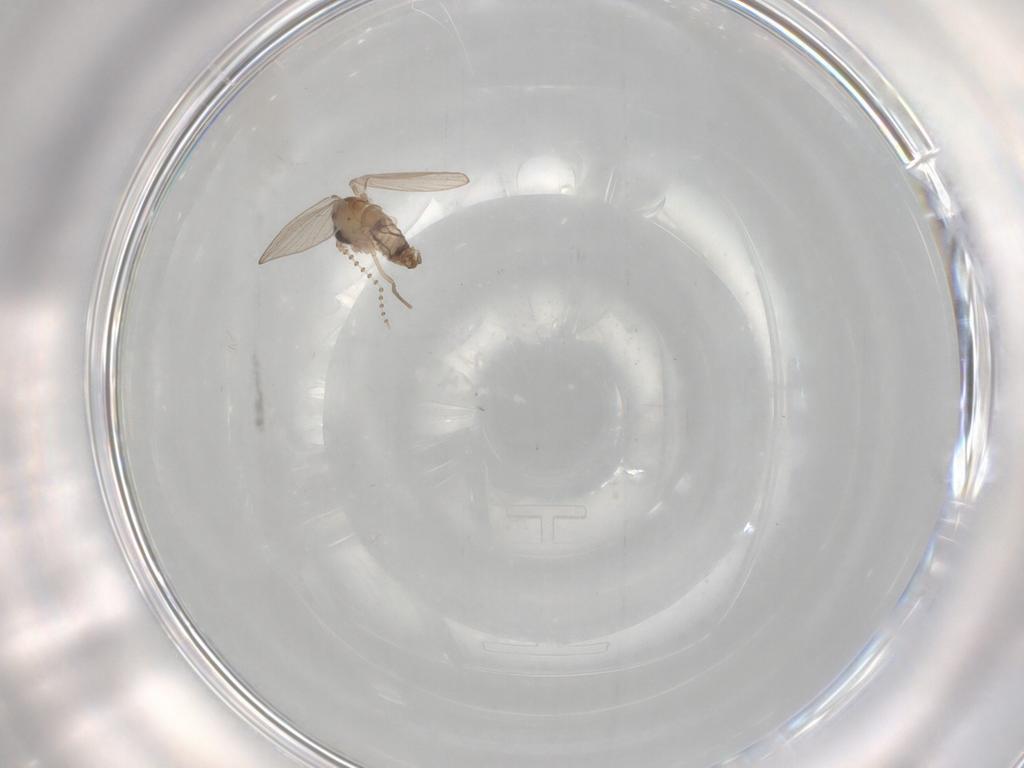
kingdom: Animalia
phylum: Arthropoda
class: Insecta
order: Diptera
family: Psychodidae
